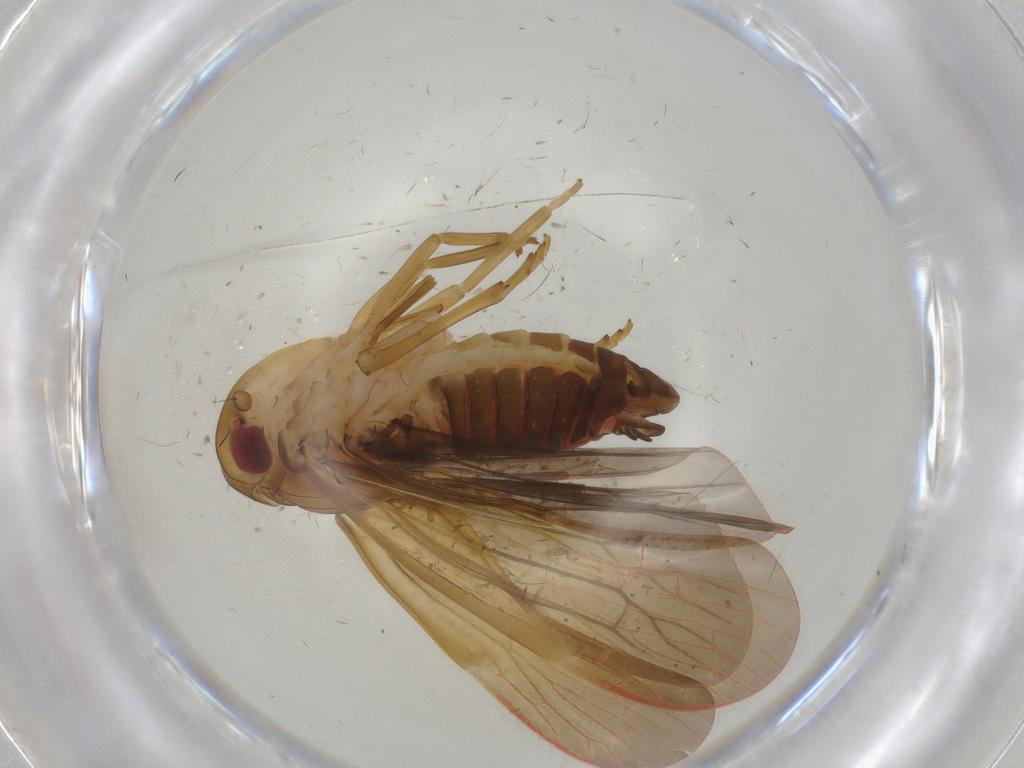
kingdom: Animalia
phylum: Arthropoda
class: Insecta
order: Hemiptera
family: Achilidae
